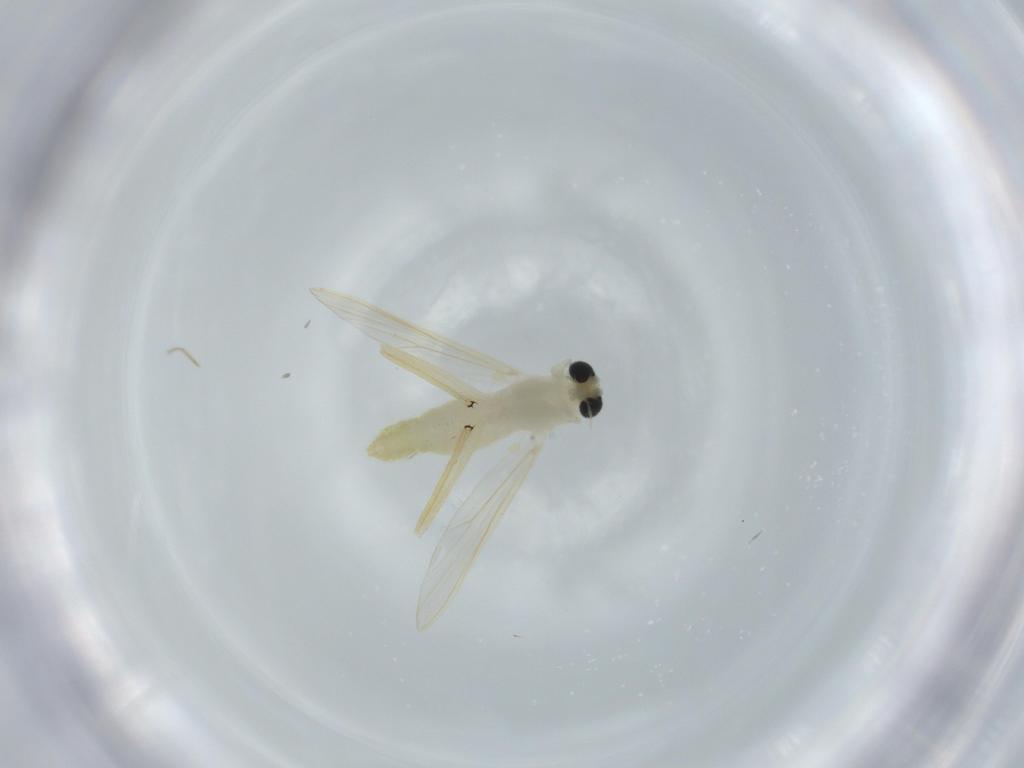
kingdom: Animalia
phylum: Arthropoda
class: Insecta
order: Diptera
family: Chironomidae
